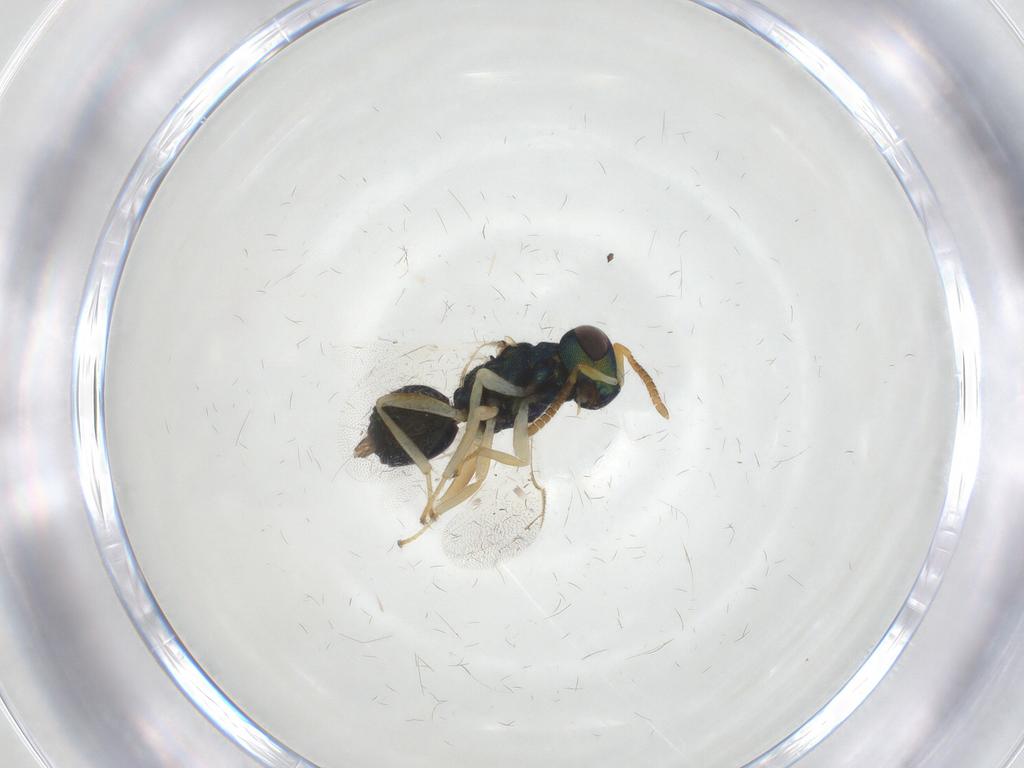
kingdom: Animalia
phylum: Arthropoda
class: Insecta
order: Hymenoptera
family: Pteromalidae
